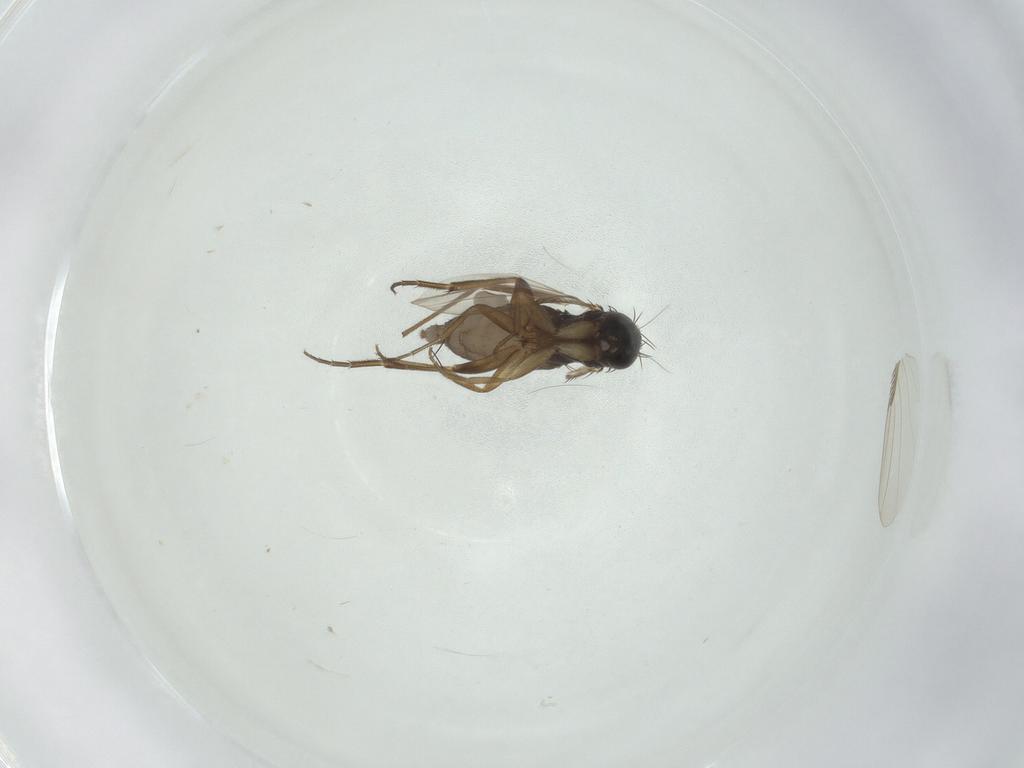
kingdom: Animalia
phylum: Arthropoda
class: Insecta
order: Diptera
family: Chironomidae
